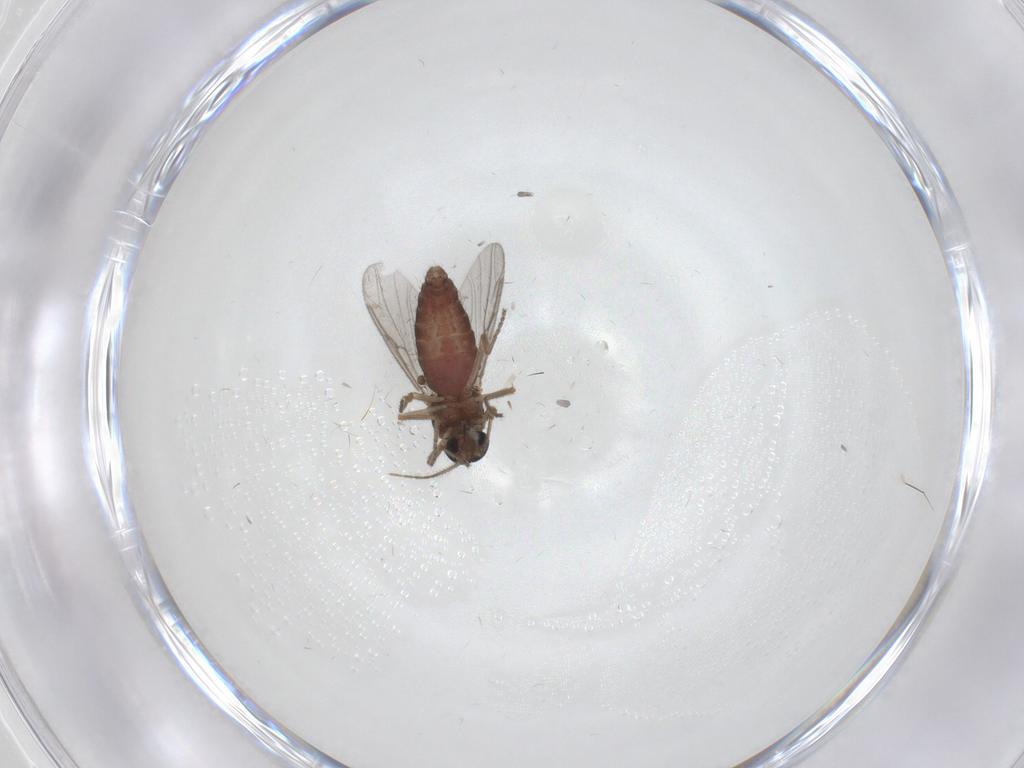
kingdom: Animalia
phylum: Arthropoda
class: Insecta
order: Diptera
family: Ceratopogonidae
